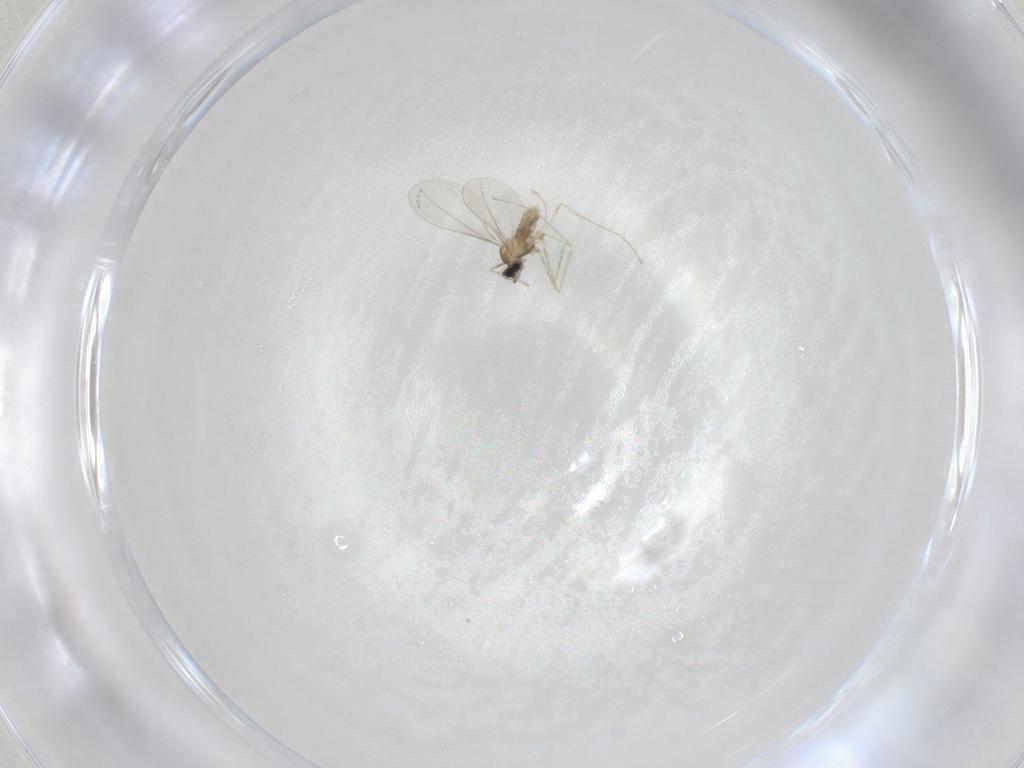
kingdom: Animalia
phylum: Arthropoda
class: Insecta
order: Diptera
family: Cecidomyiidae
